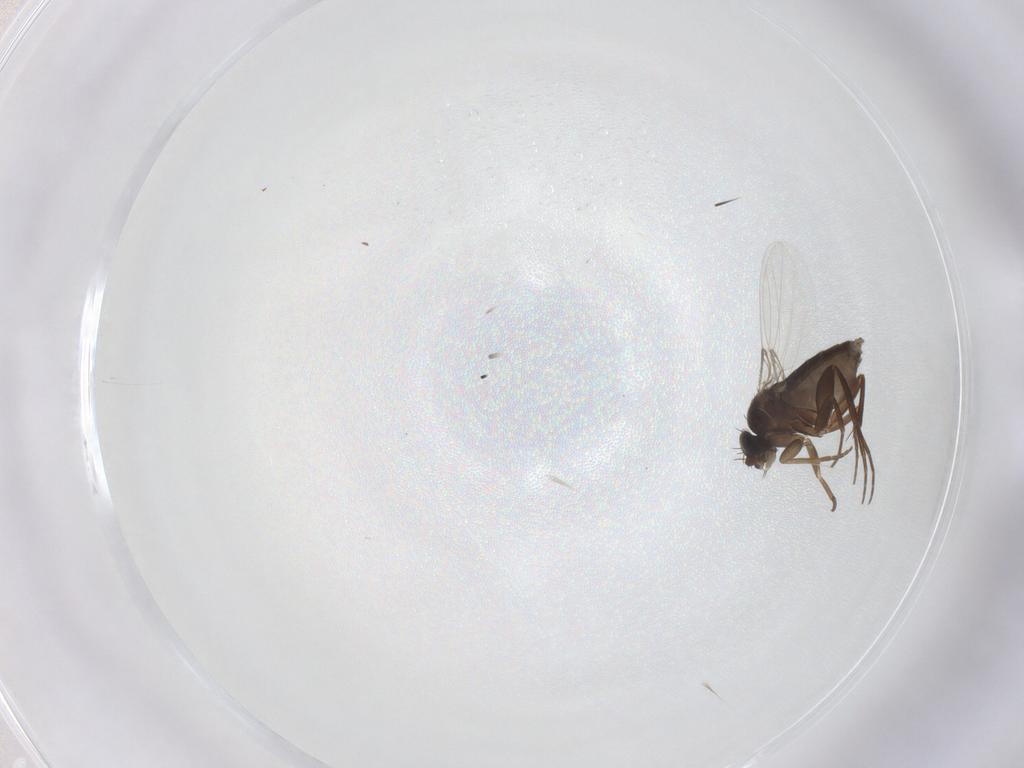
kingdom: Animalia
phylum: Arthropoda
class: Insecta
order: Diptera
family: Phoridae
